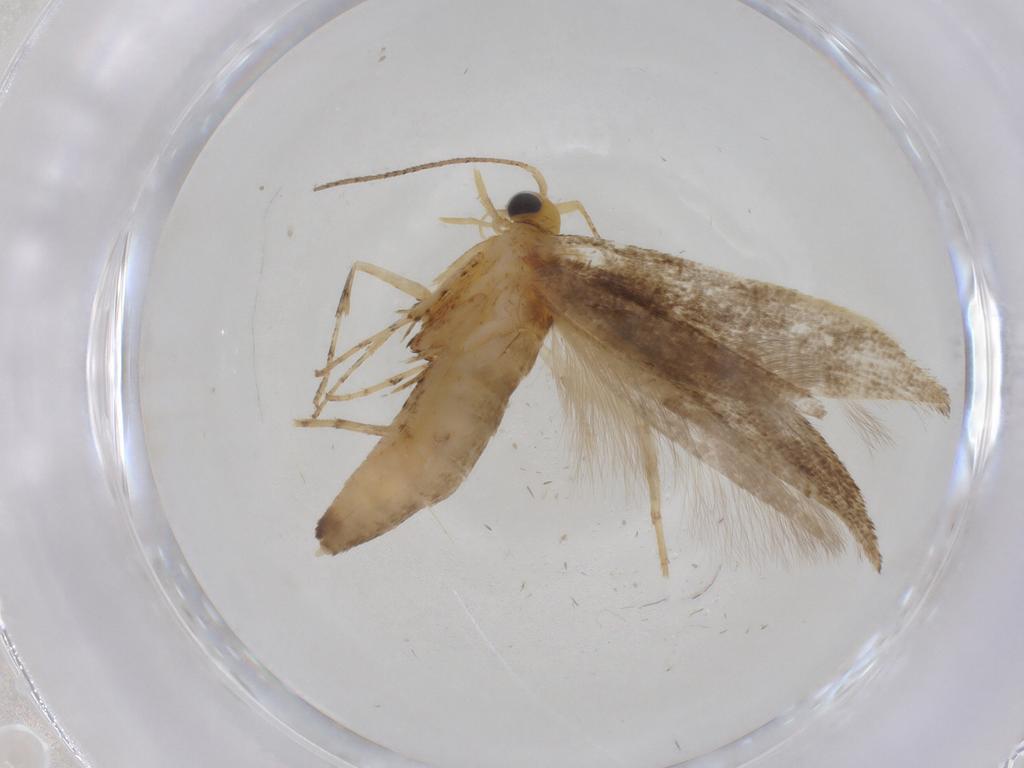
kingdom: Animalia
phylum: Arthropoda
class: Insecta
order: Lepidoptera
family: Argyresthiidae
